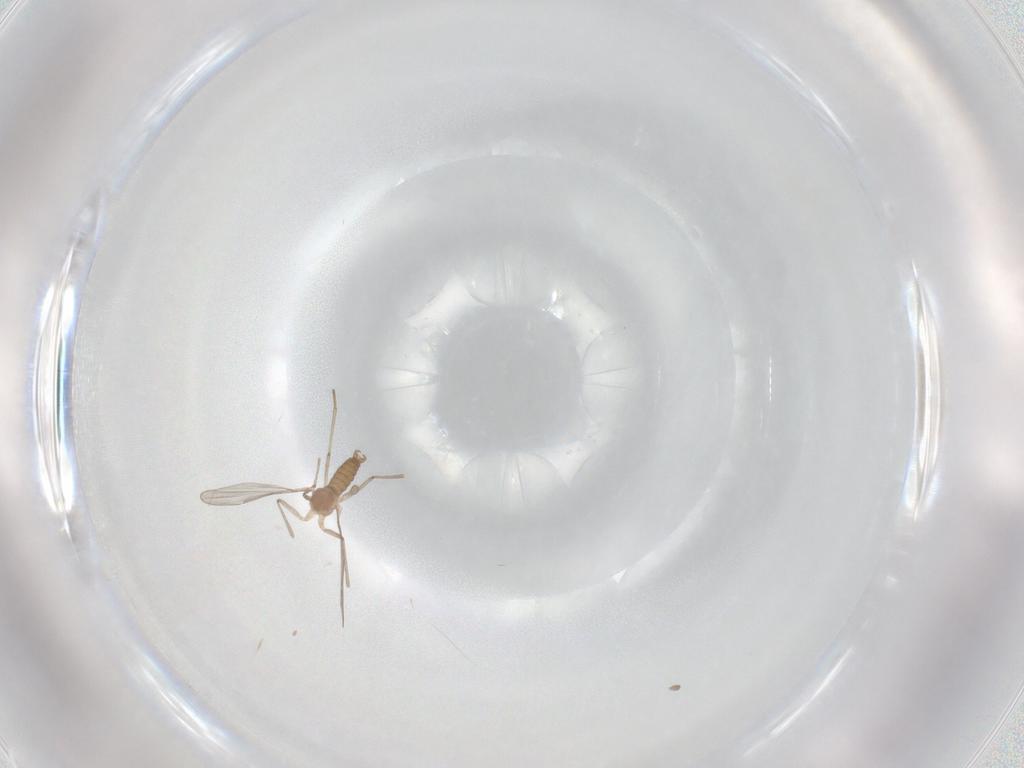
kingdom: Animalia
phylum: Arthropoda
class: Insecta
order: Diptera
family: Cecidomyiidae
